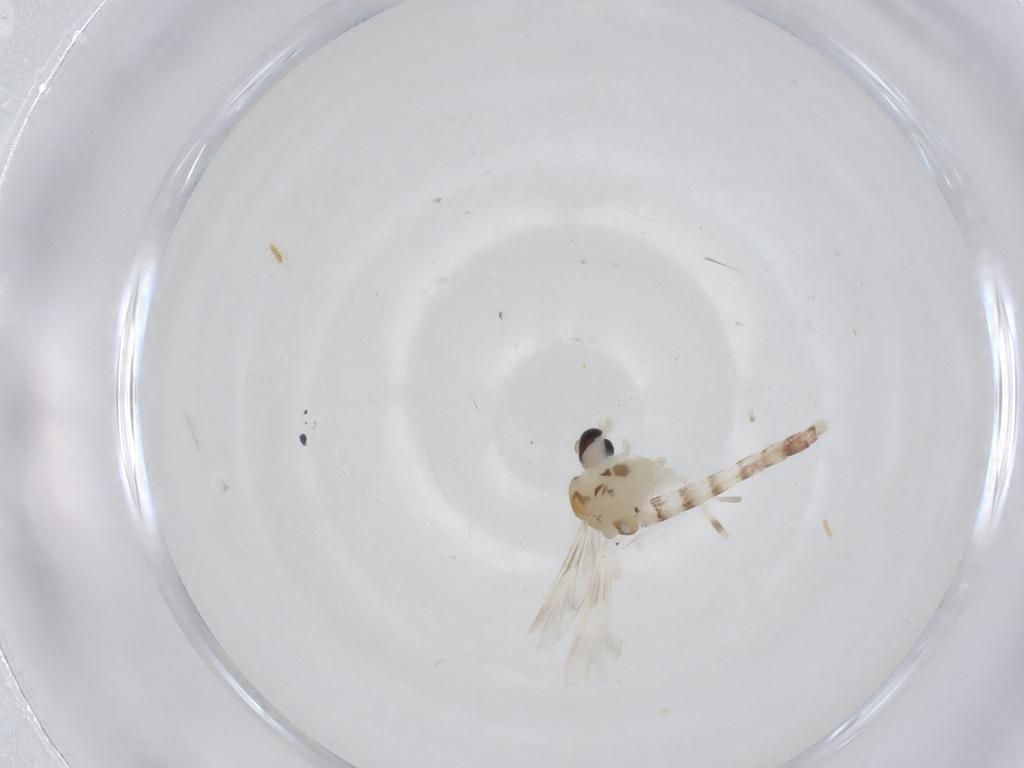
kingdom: Animalia
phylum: Arthropoda
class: Insecta
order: Diptera
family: Chironomidae
